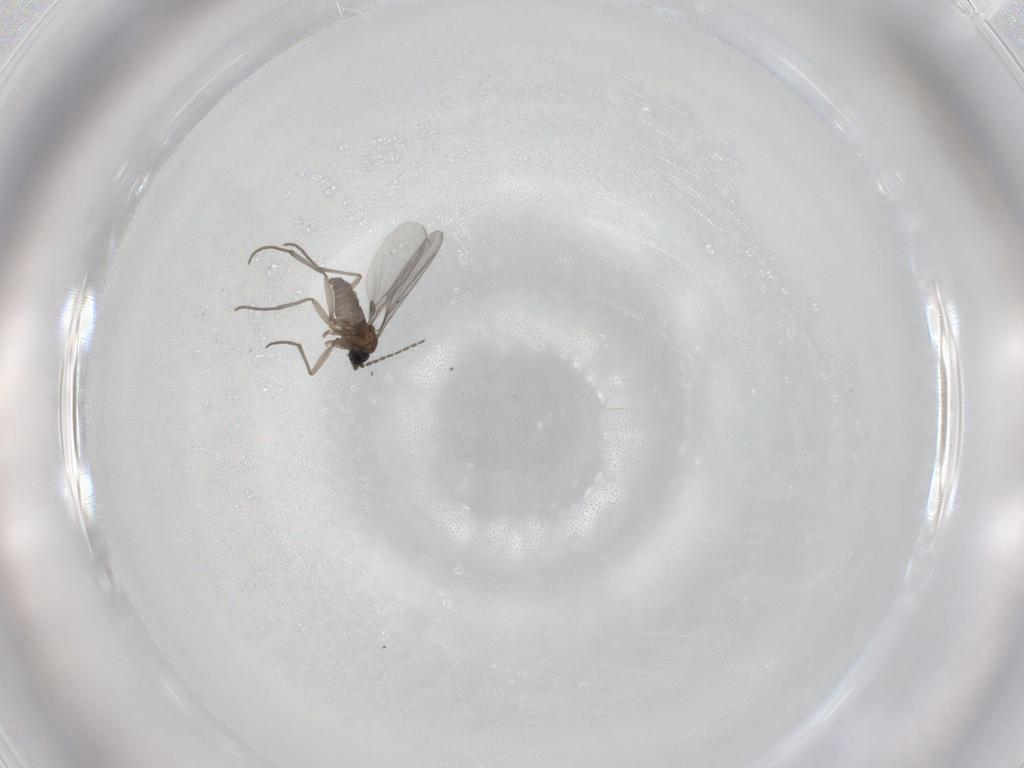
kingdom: Animalia
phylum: Arthropoda
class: Insecta
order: Diptera
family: Sciaridae
